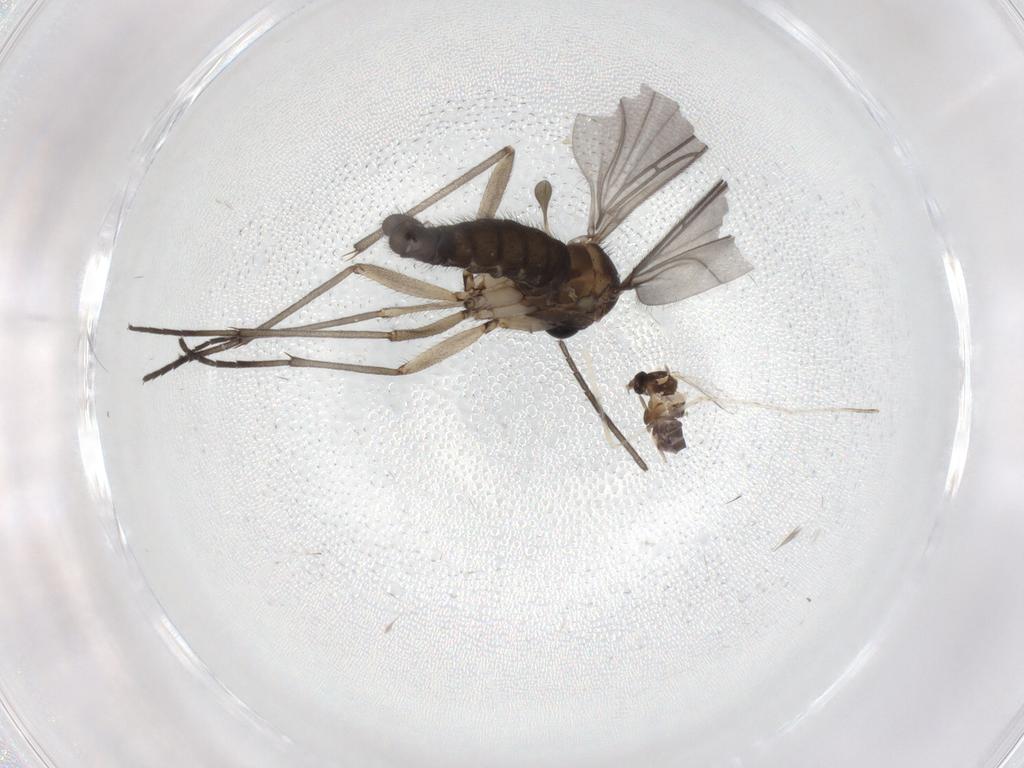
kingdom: Animalia
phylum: Arthropoda
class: Insecta
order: Diptera
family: Sciaridae
